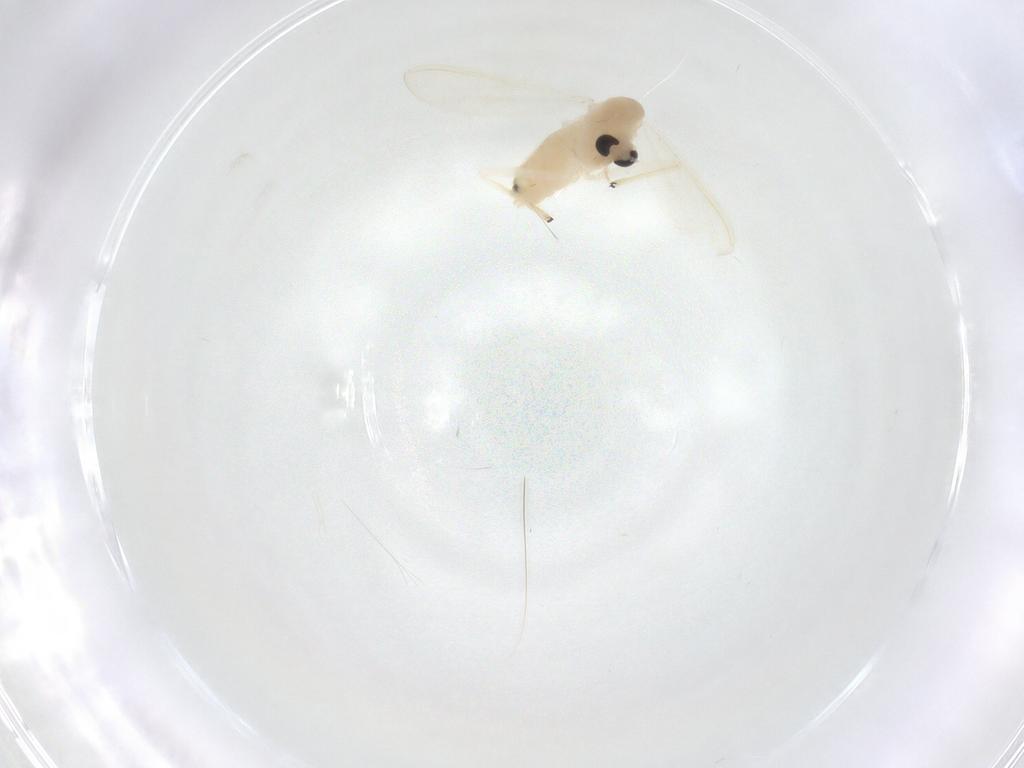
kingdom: Animalia
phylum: Arthropoda
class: Insecta
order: Diptera
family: Chironomidae
